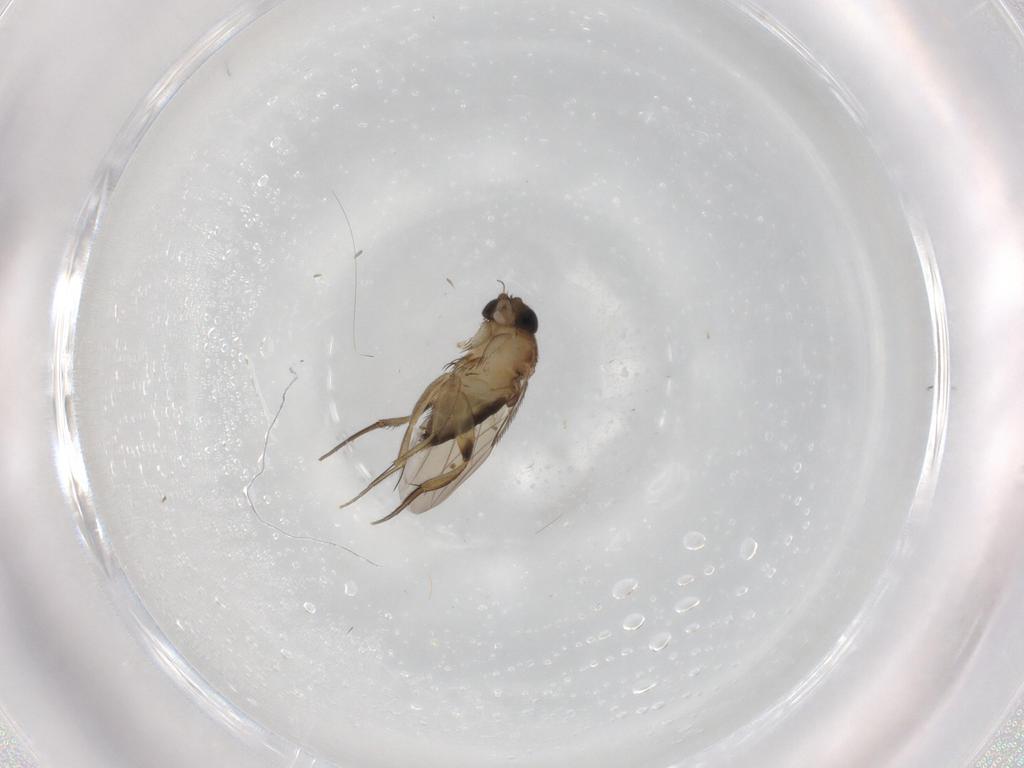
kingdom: Animalia
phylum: Arthropoda
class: Insecta
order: Diptera
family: Phoridae
